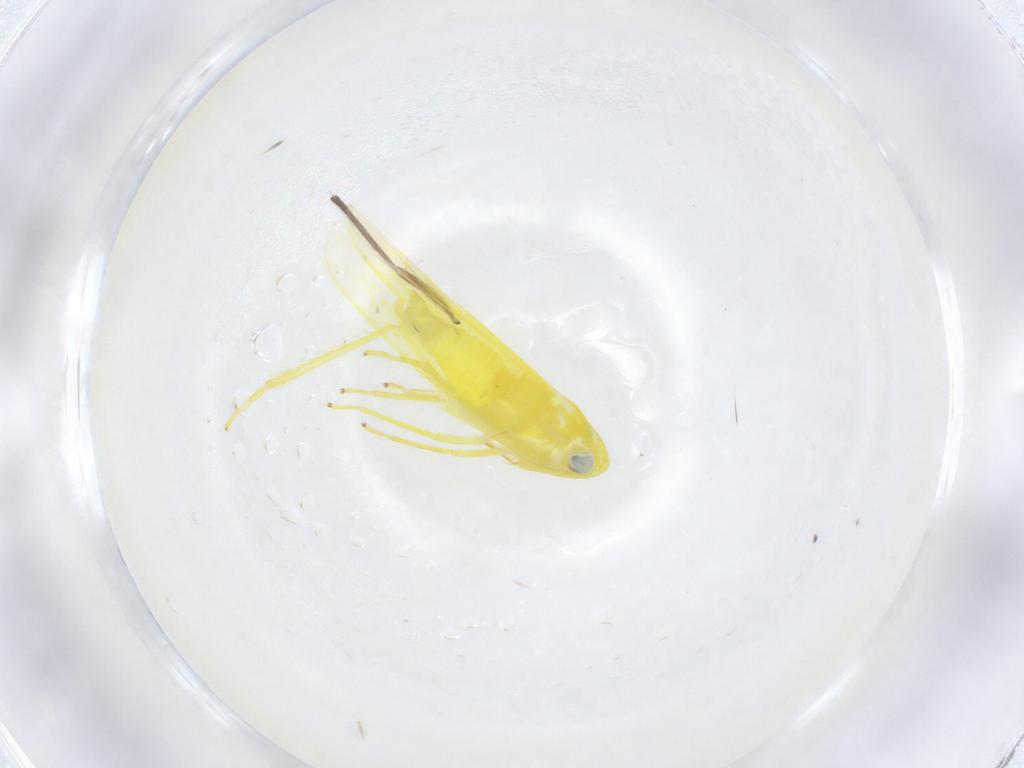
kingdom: Animalia
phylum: Arthropoda
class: Insecta
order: Hemiptera
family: Cicadellidae
